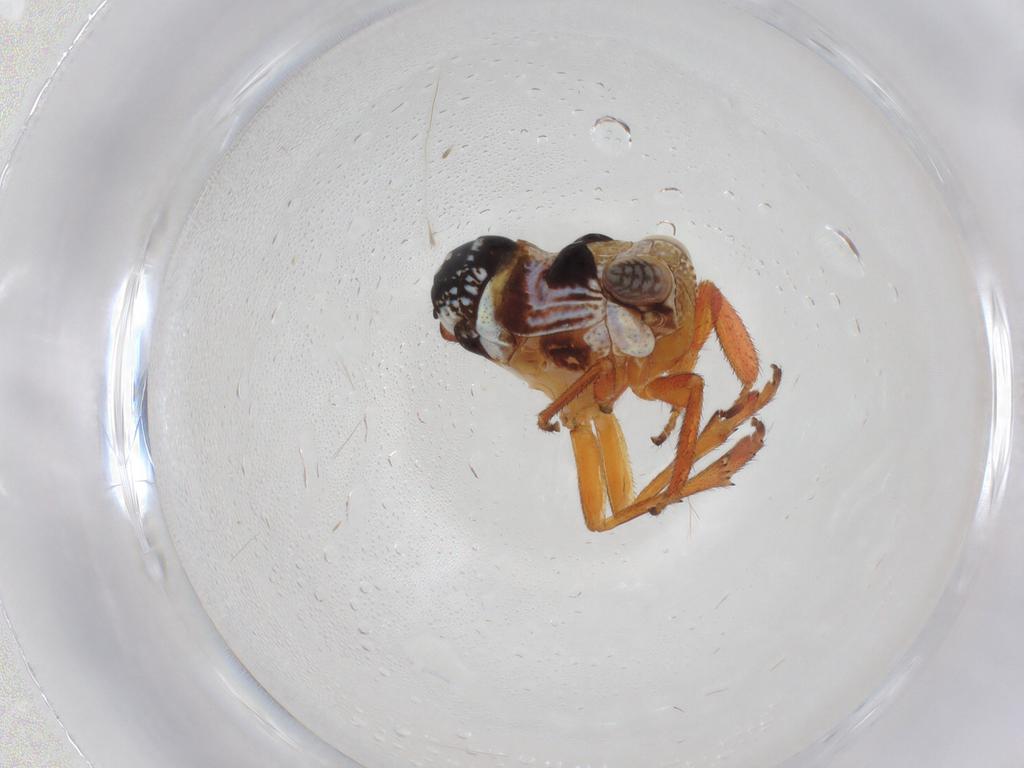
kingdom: Animalia
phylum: Arthropoda
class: Insecta
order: Hemiptera
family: Caliscelidae
